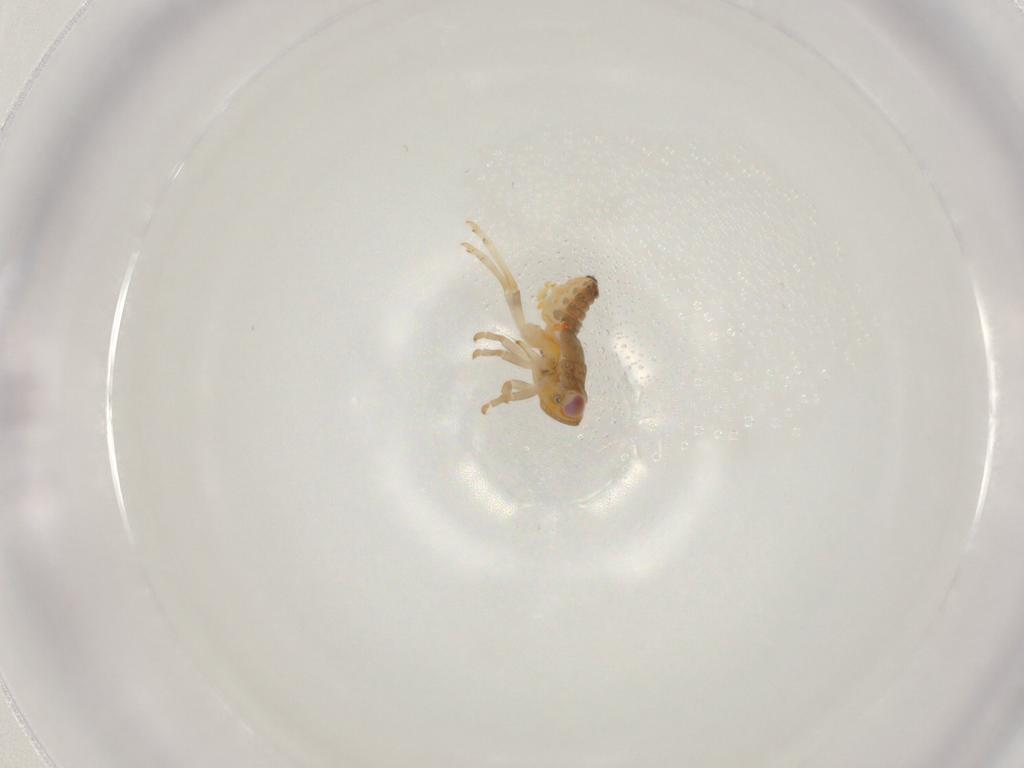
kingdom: Animalia
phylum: Arthropoda
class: Insecta
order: Hemiptera
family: Issidae
